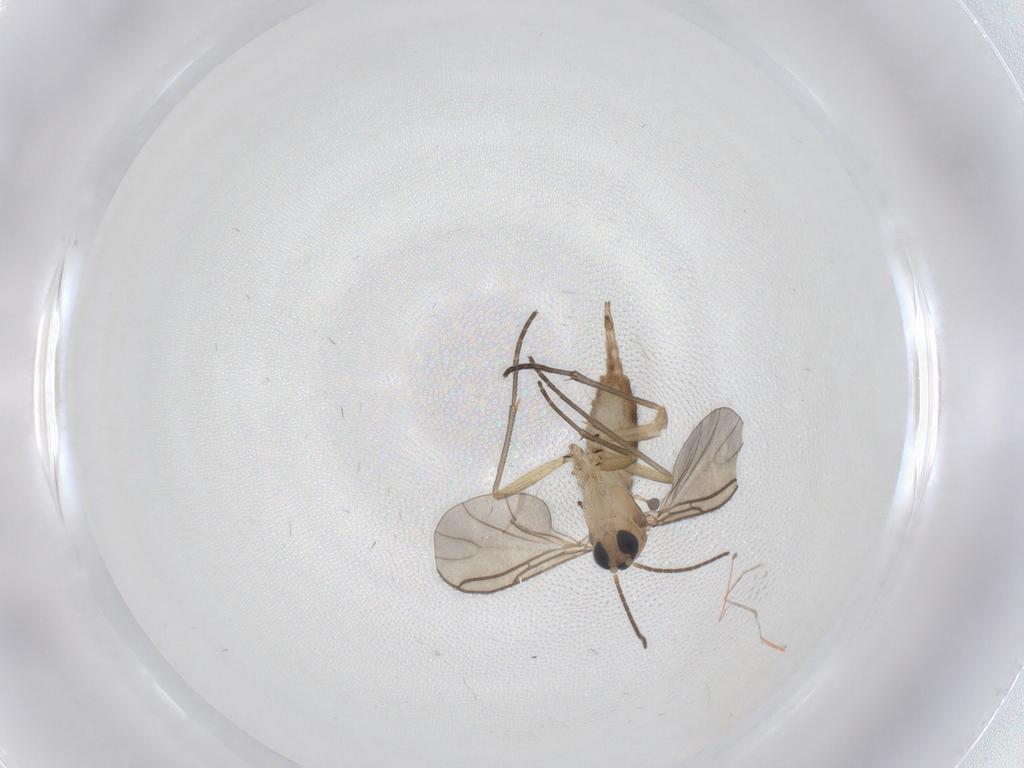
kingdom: Animalia
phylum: Arthropoda
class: Insecta
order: Diptera
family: Cecidomyiidae
